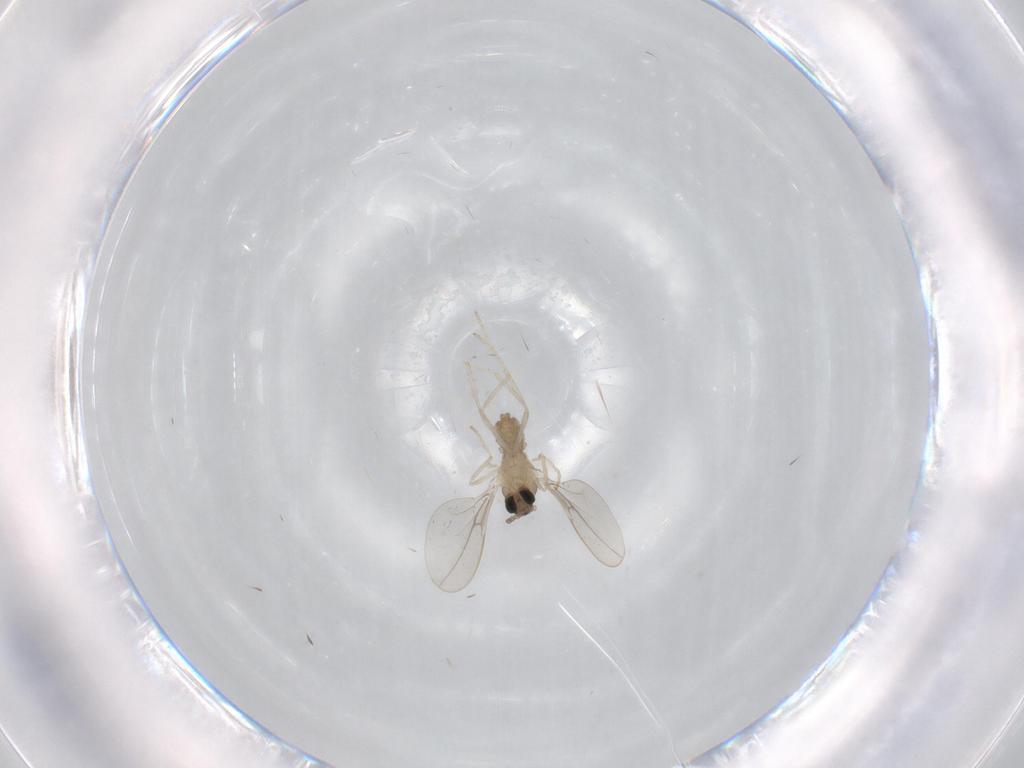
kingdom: Animalia
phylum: Arthropoda
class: Insecta
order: Diptera
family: Cecidomyiidae
